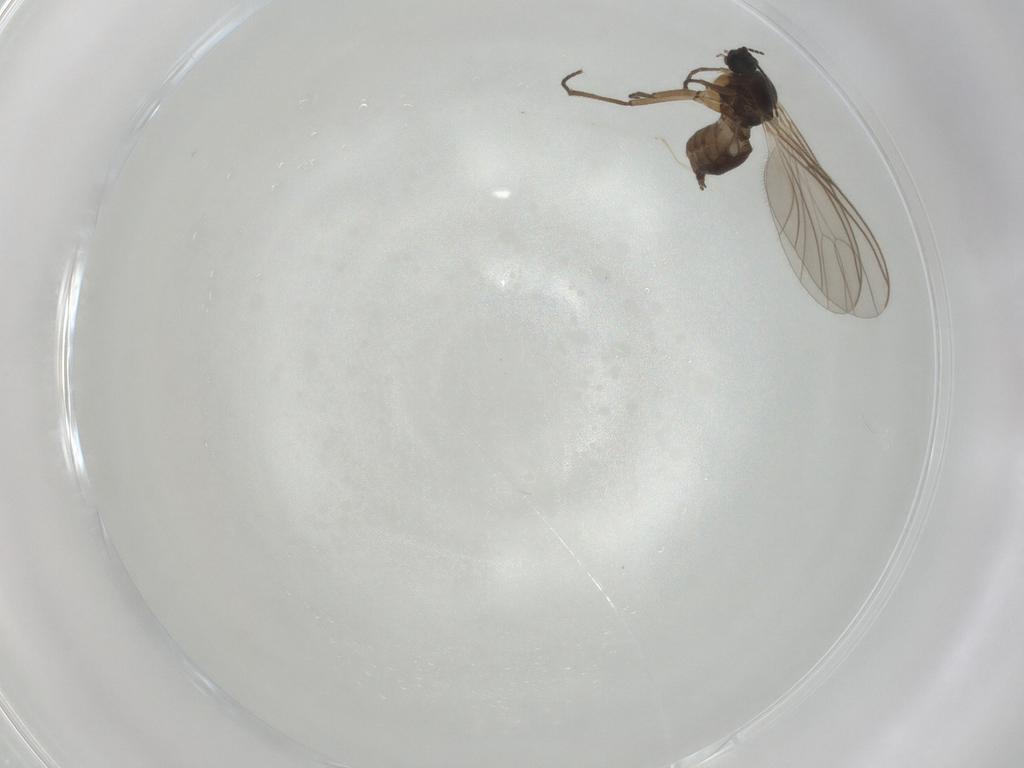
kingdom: Animalia
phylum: Arthropoda
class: Insecta
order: Diptera
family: Sciaridae
